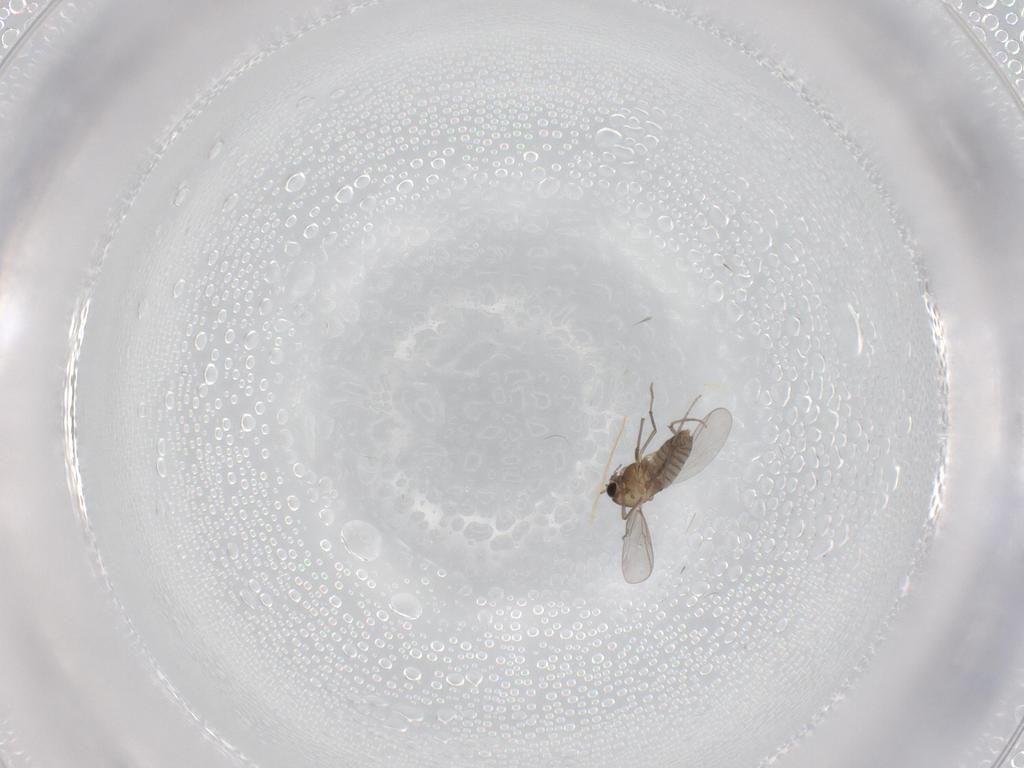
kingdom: Animalia
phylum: Arthropoda
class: Insecta
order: Diptera
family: Chironomidae
